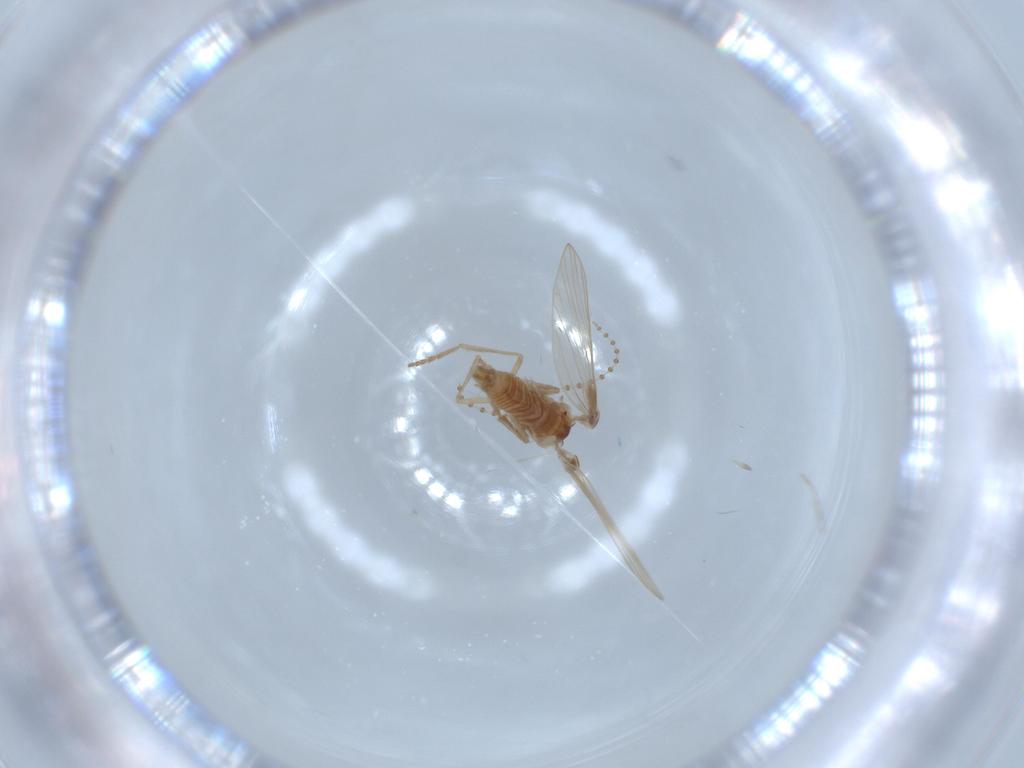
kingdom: Animalia
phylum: Arthropoda
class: Insecta
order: Diptera
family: Psychodidae
